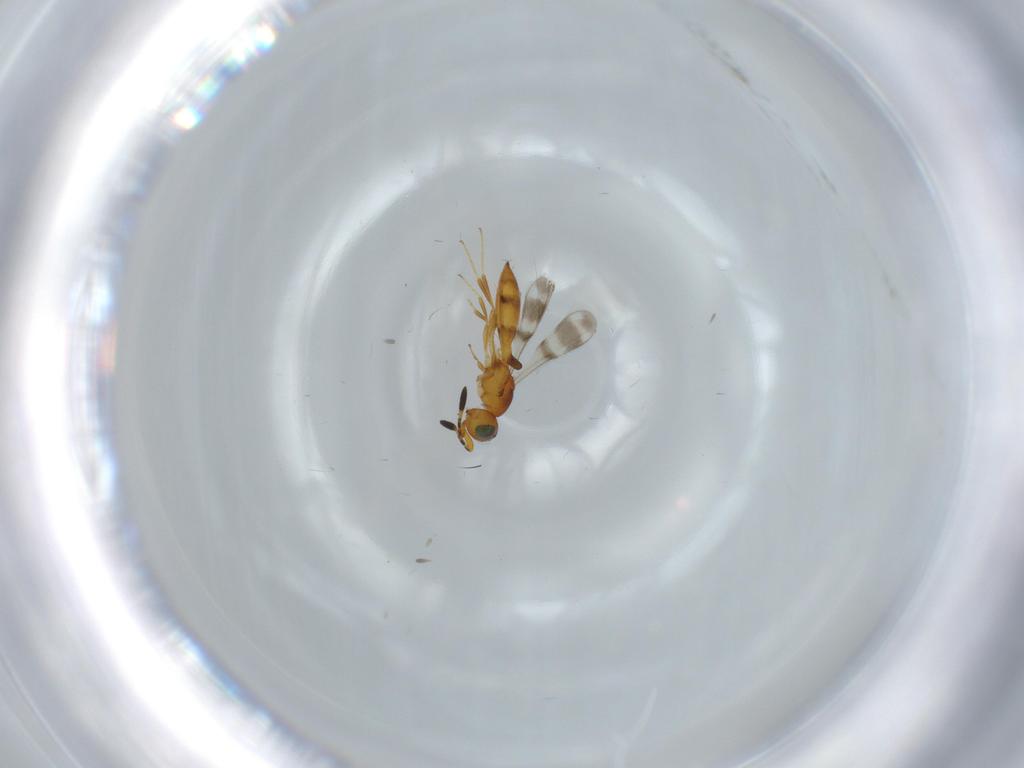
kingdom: Animalia
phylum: Arthropoda
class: Insecta
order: Hymenoptera
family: Scelionidae
